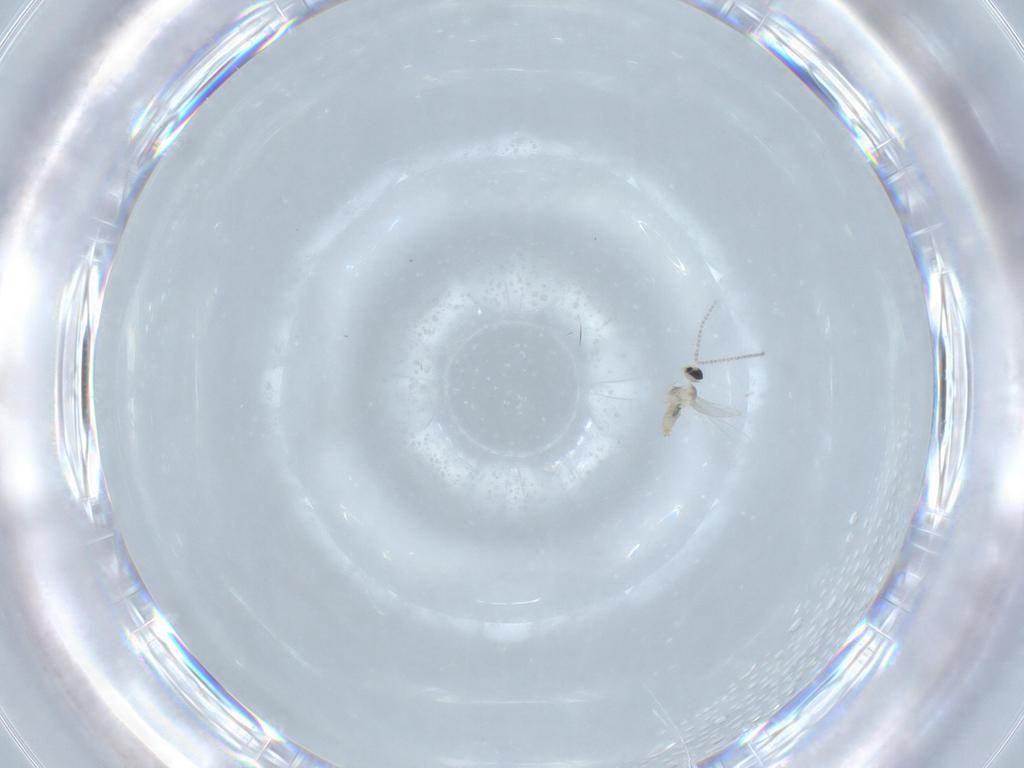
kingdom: Animalia
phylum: Arthropoda
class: Insecta
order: Diptera
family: Cecidomyiidae
